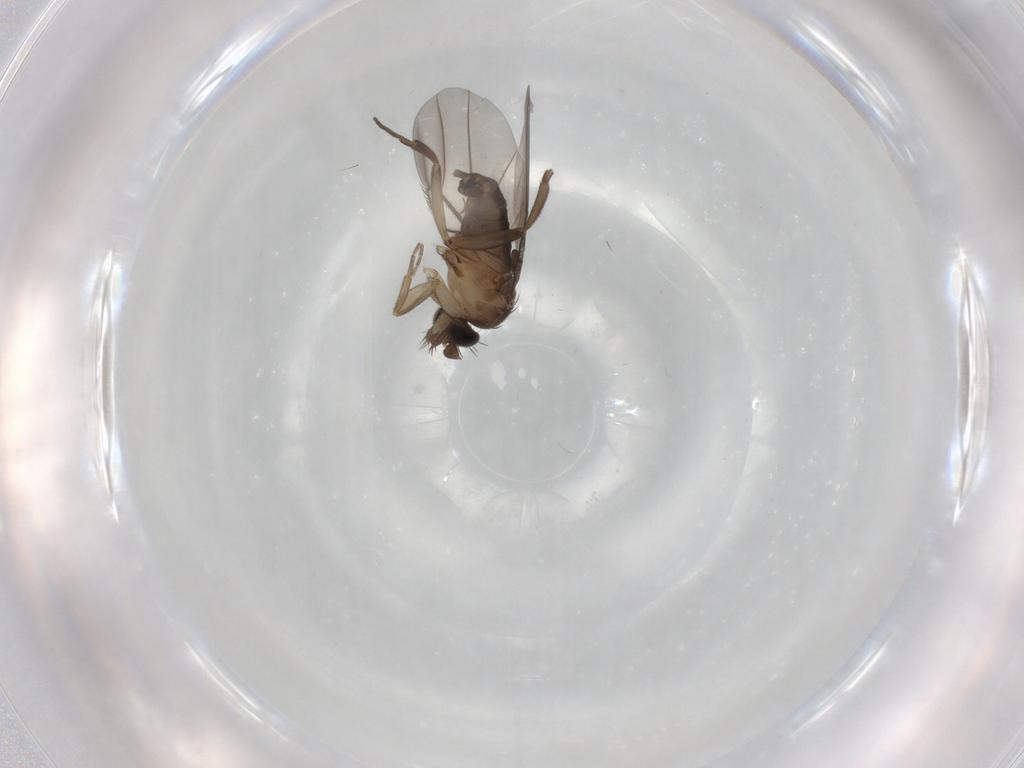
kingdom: Animalia
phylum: Arthropoda
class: Insecta
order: Diptera
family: Phoridae
